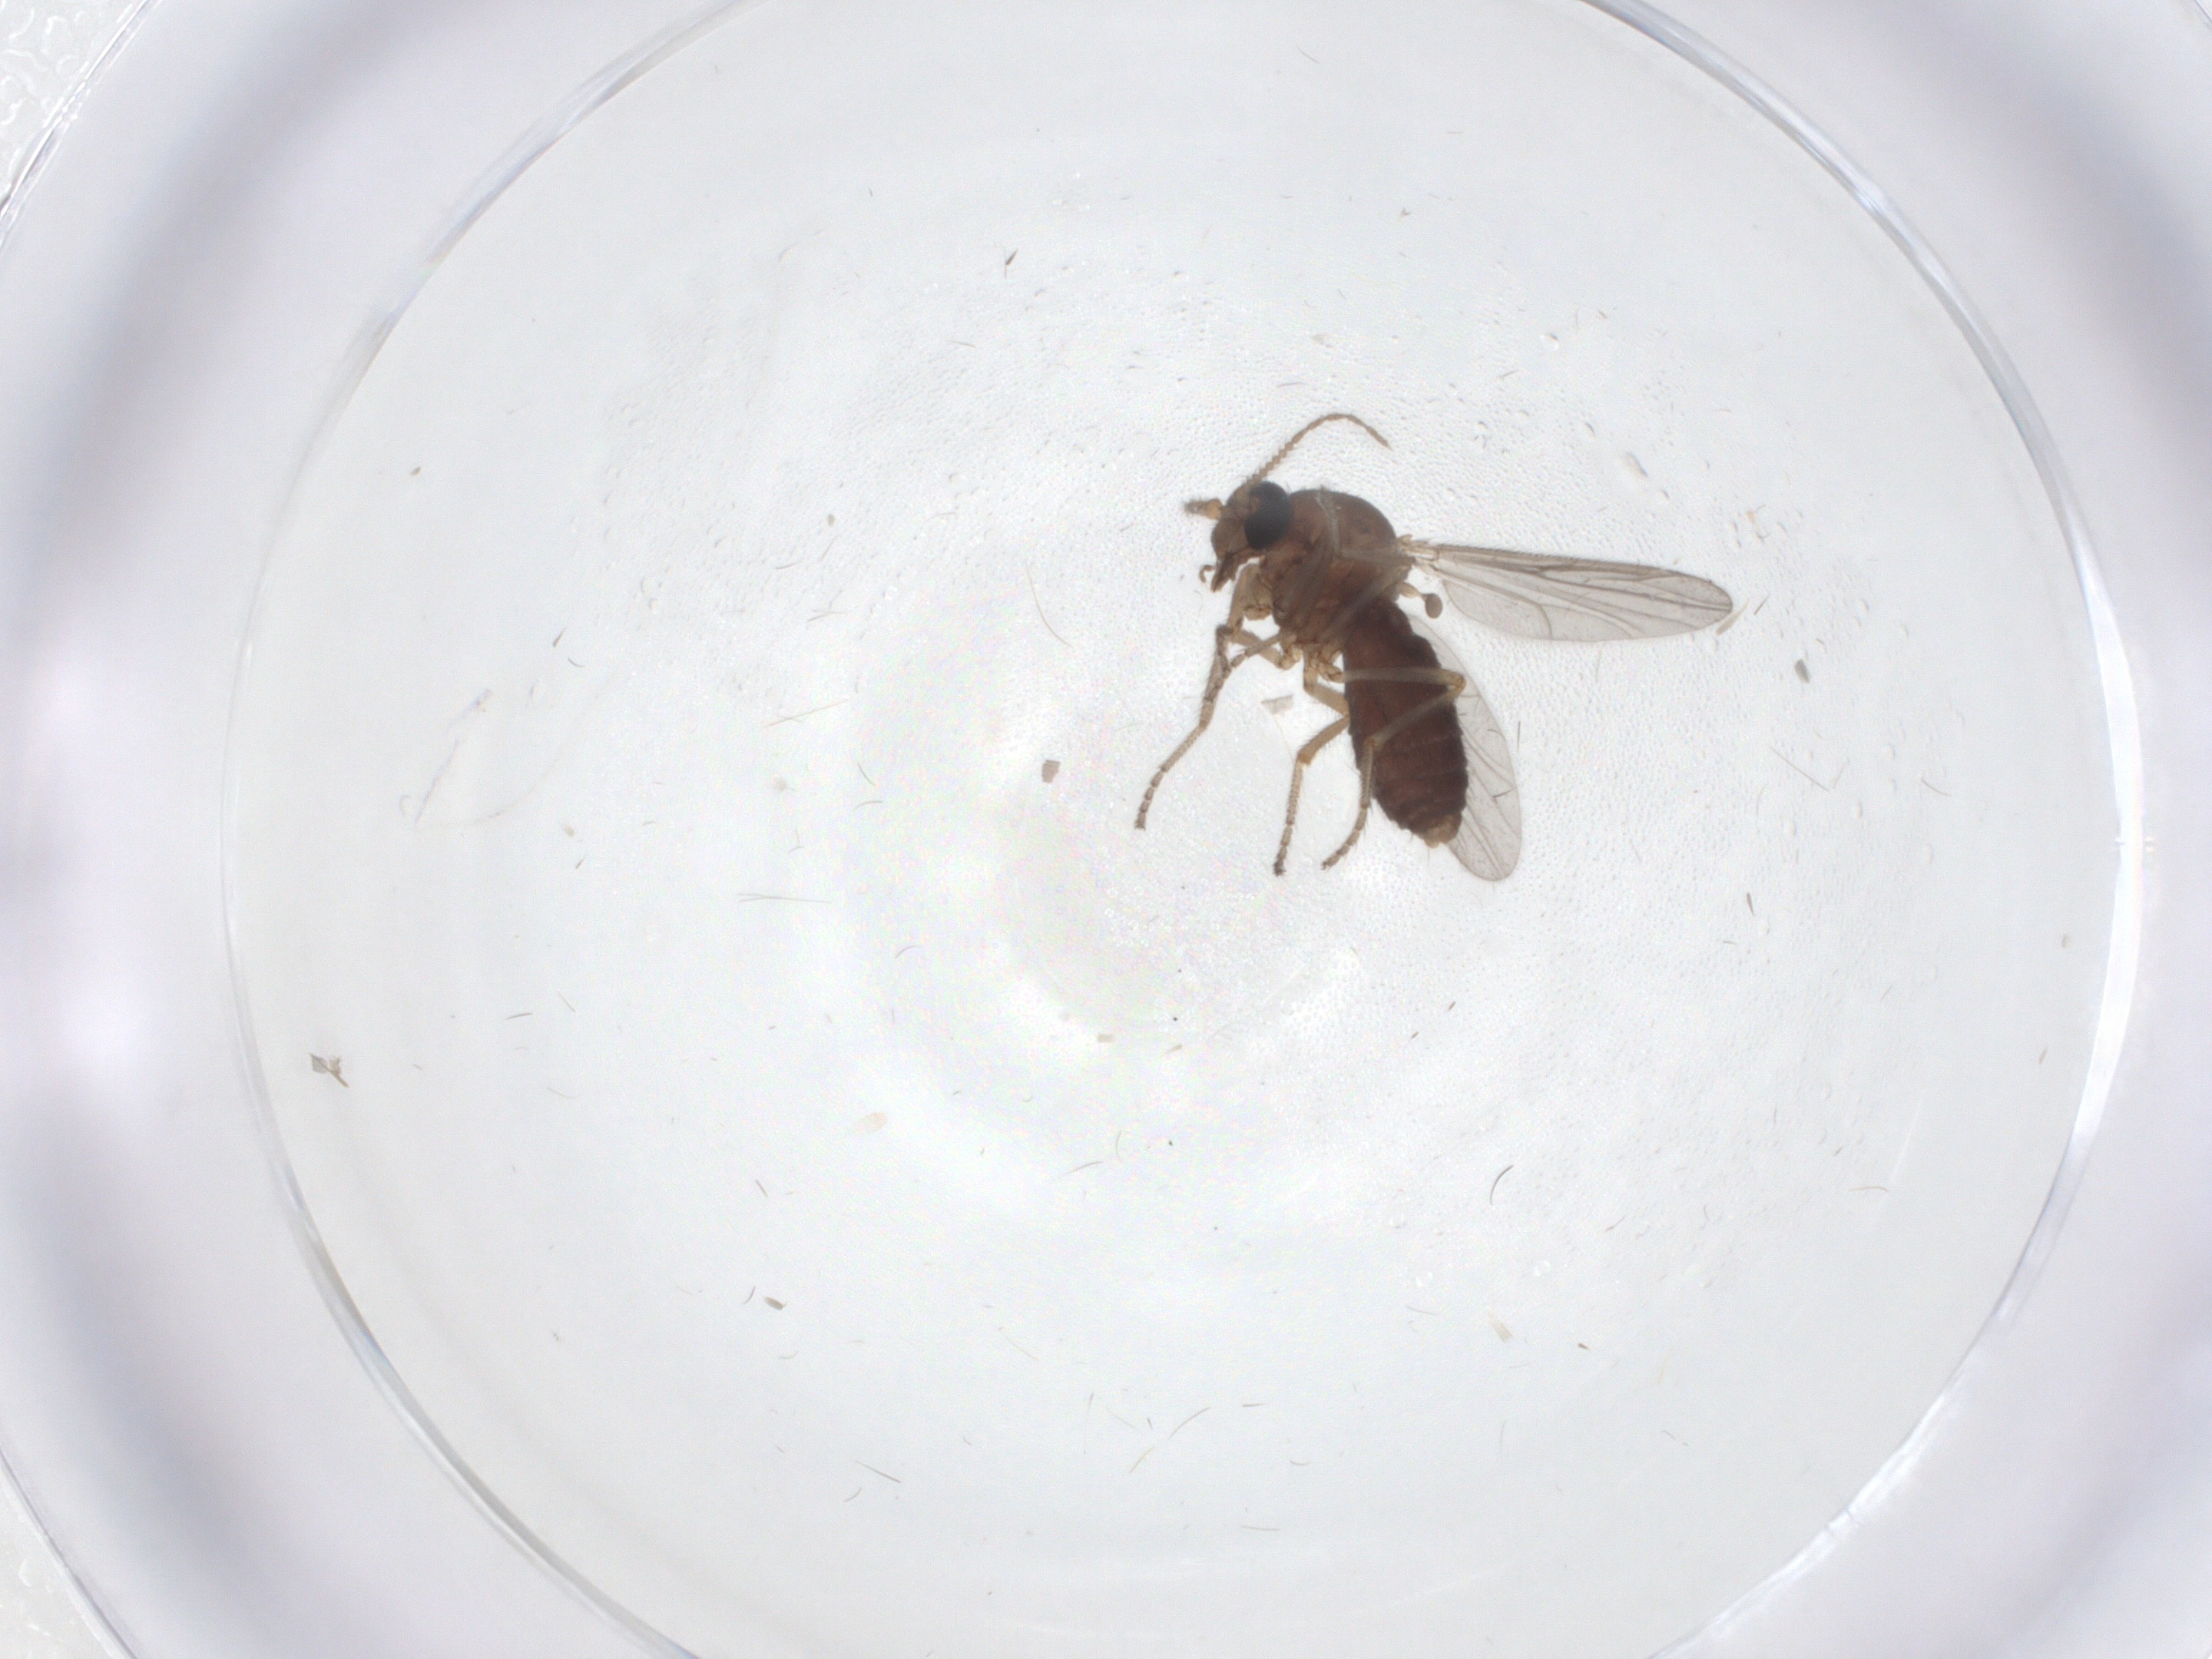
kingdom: Animalia
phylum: Arthropoda
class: Insecta
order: Diptera
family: Ceratopogonidae
